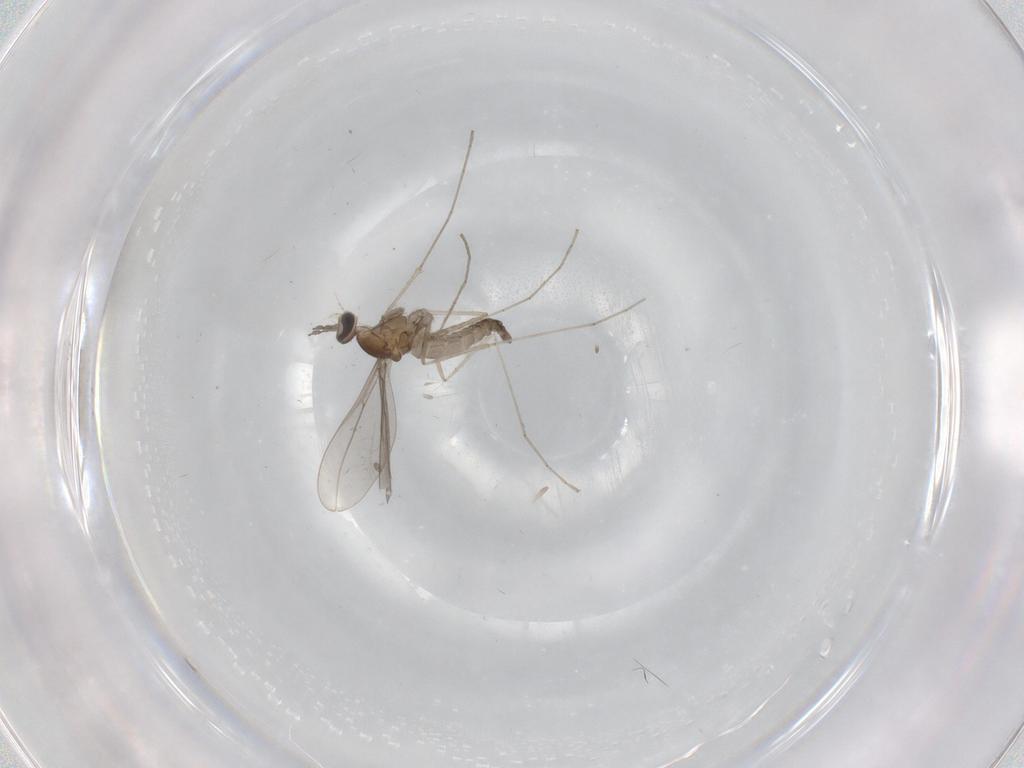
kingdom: Animalia
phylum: Arthropoda
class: Insecta
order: Diptera
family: Cecidomyiidae
